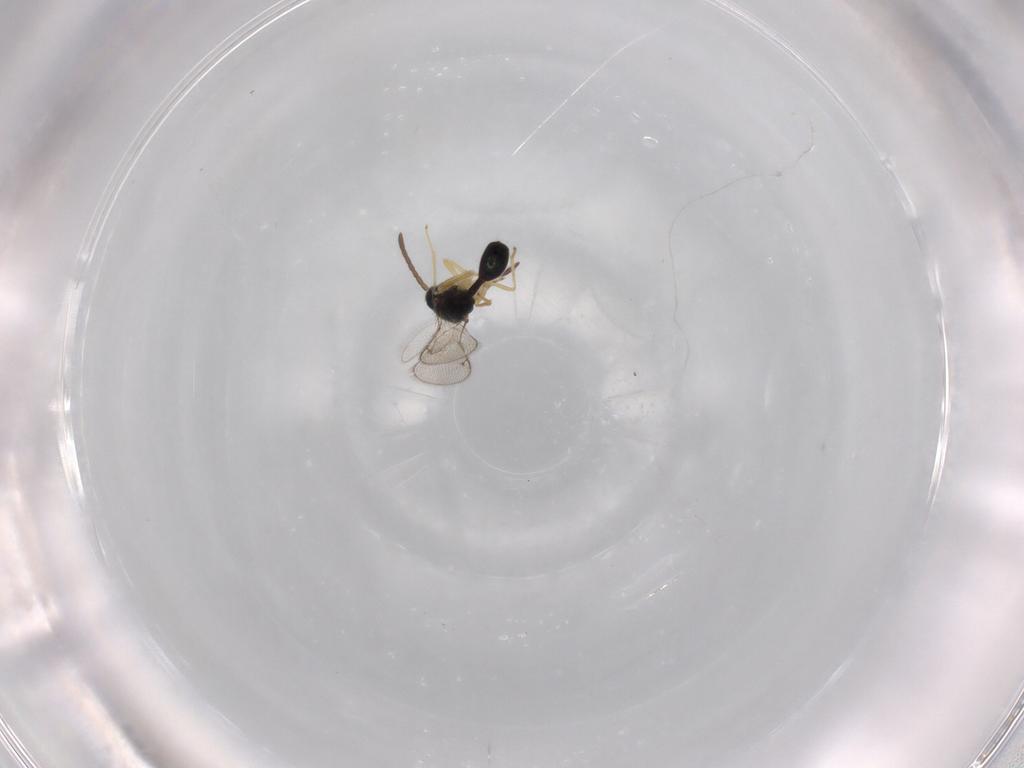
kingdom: Animalia
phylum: Arthropoda
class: Insecta
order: Hymenoptera
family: Diparidae
